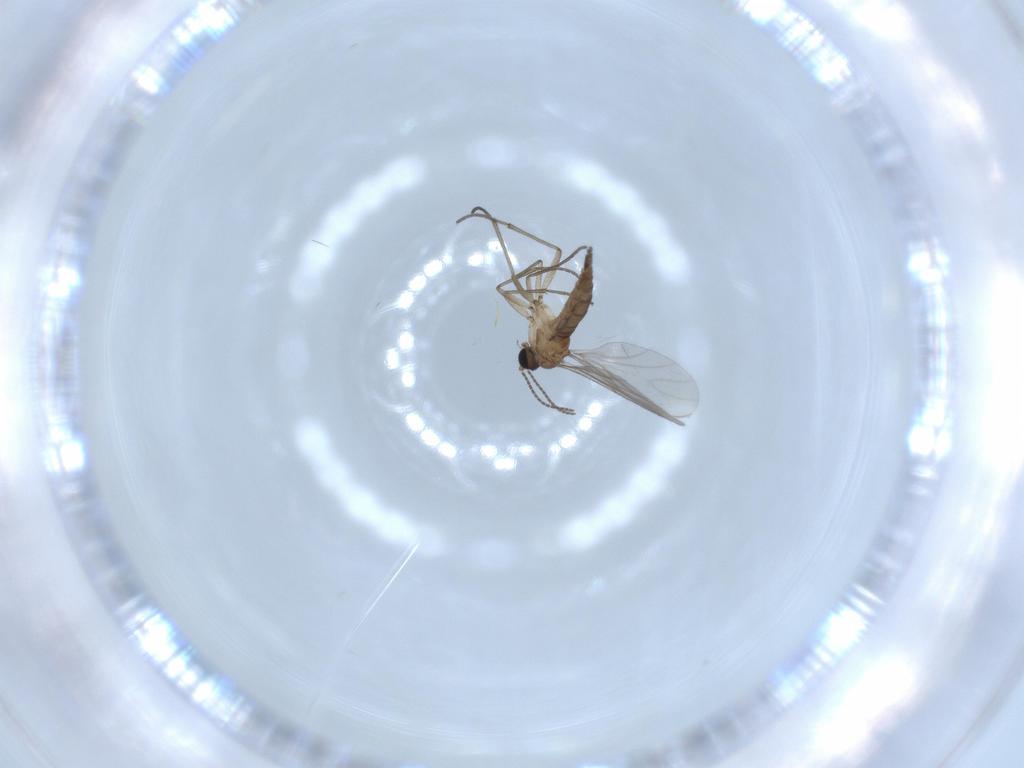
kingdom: Animalia
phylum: Arthropoda
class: Insecta
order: Diptera
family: Sciaridae
